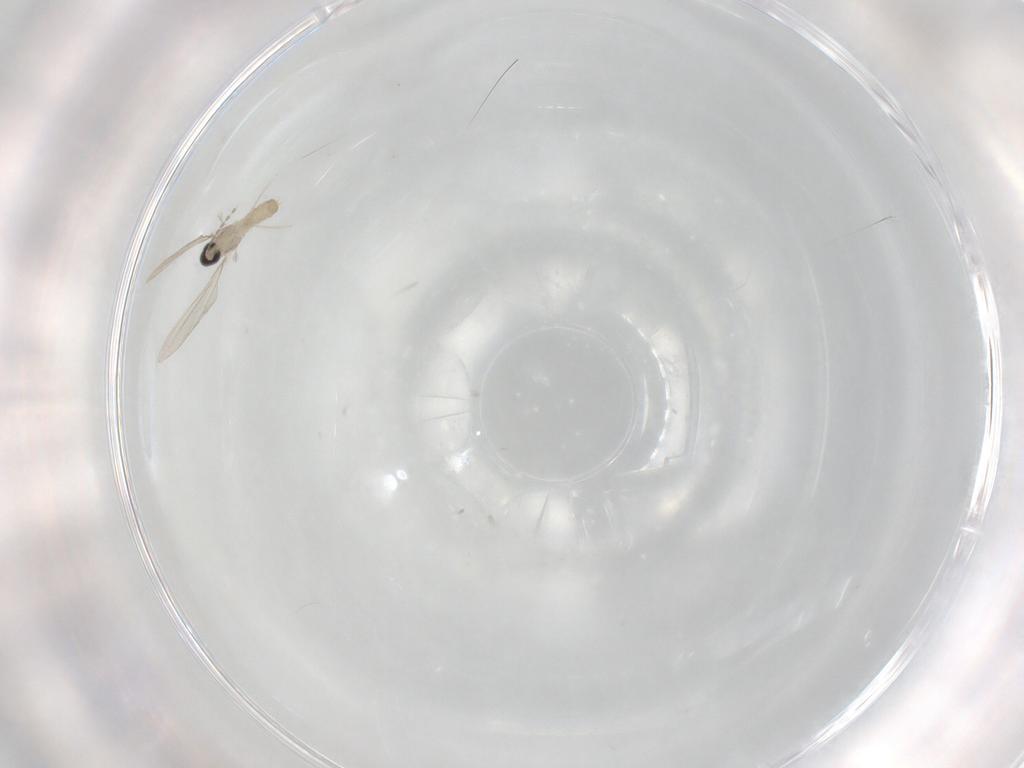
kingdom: Animalia
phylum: Arthropoda
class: Insecta
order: Diptera
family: Cecidomyiidae
